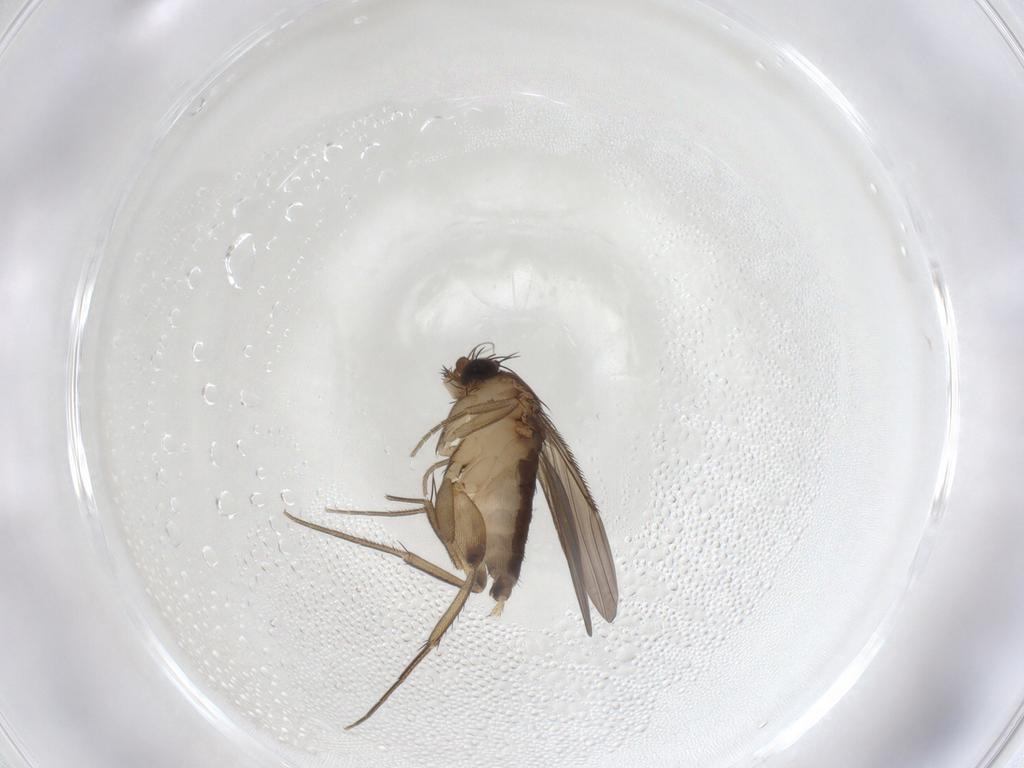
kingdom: Animalia
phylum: Arthropoda
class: Insecta
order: Diptera
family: Phoridae
